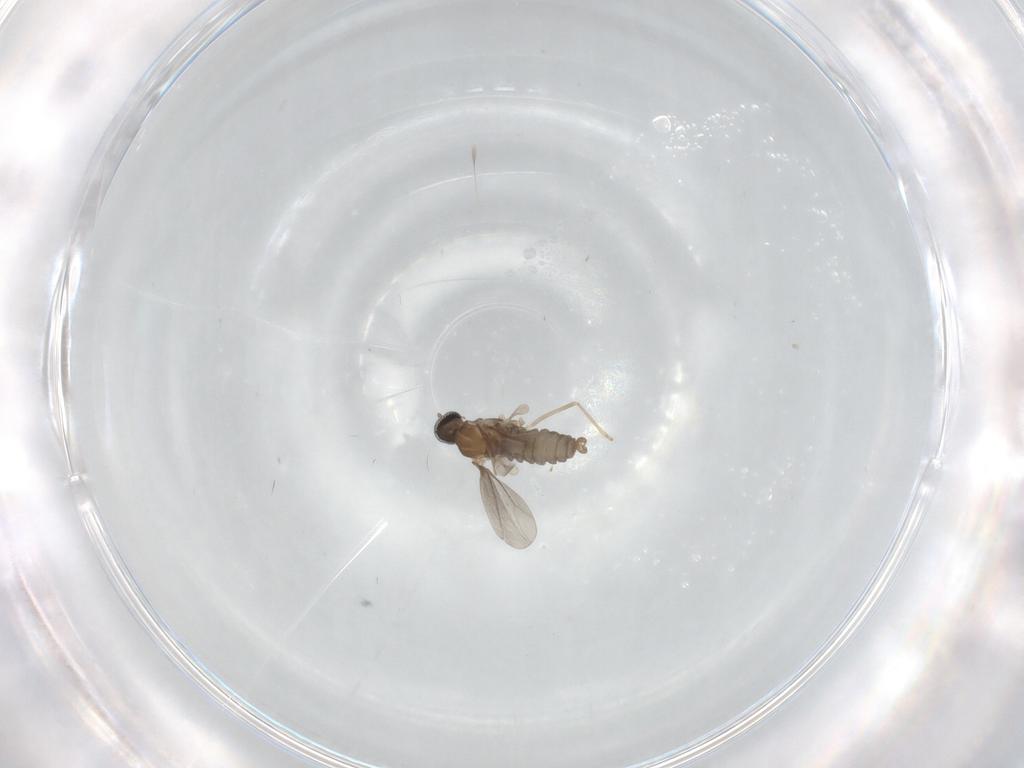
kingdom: Animalia
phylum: Arthropoda
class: Insecta
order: Diptera
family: Cecidomyiidae
